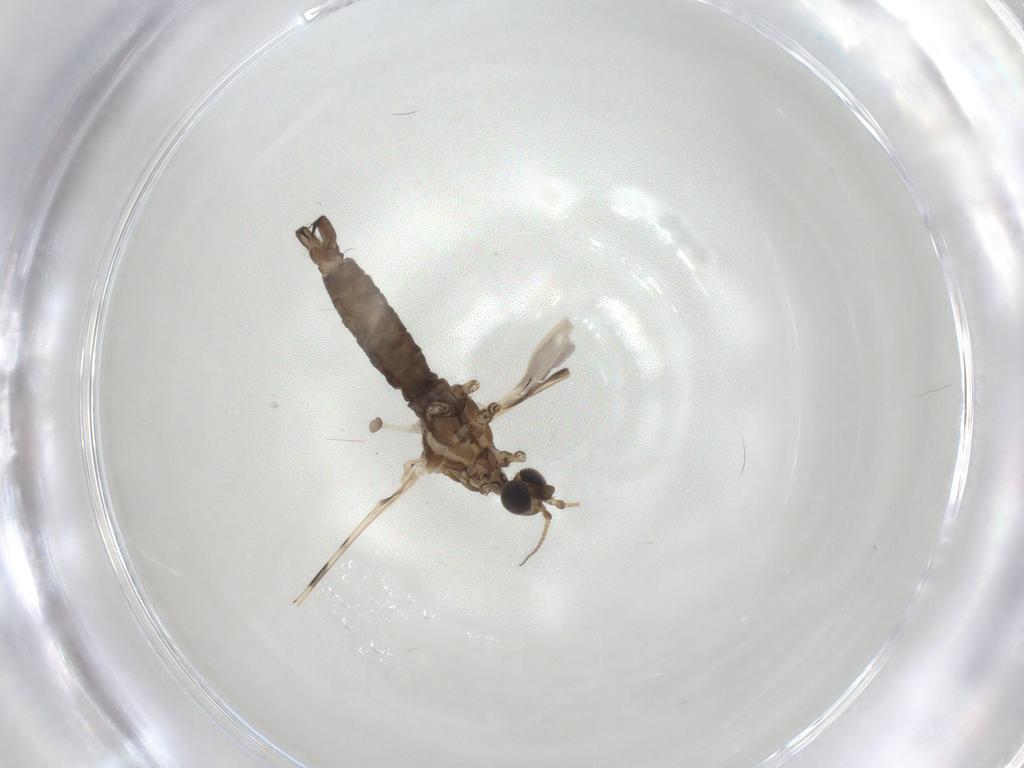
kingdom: Animalia
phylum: Arthropoda
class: Insecta
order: Diptera
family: Limoniidae
